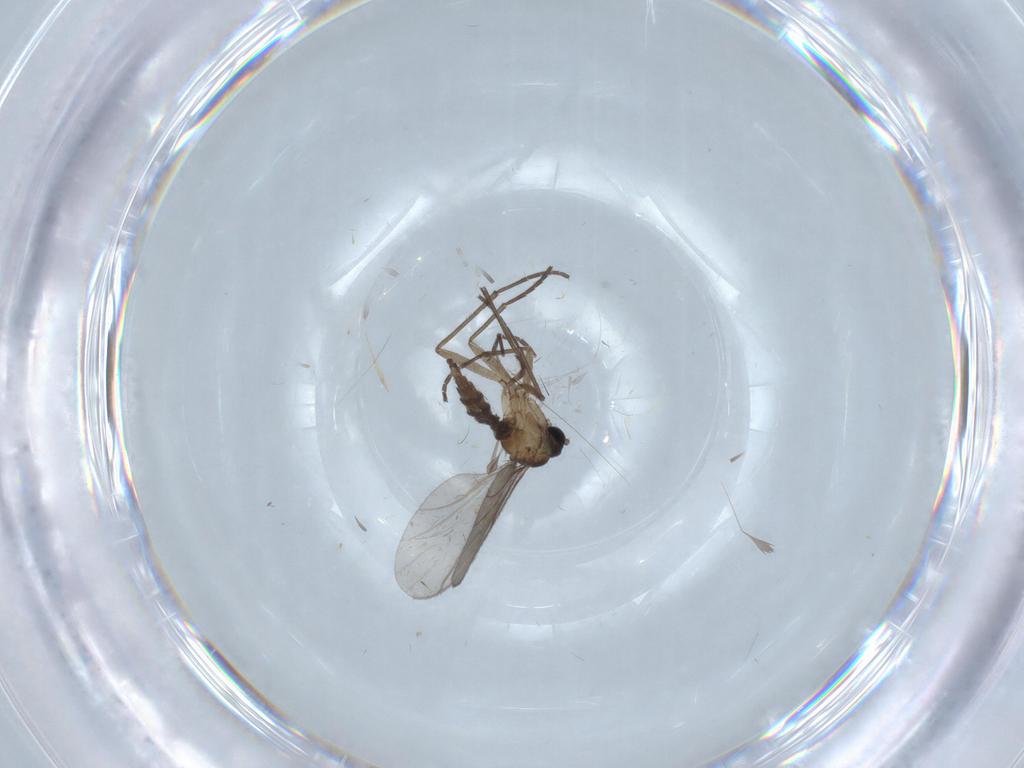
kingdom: Animalia
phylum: Arthropoda
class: Insecta
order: Diptera
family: Sciaridae
